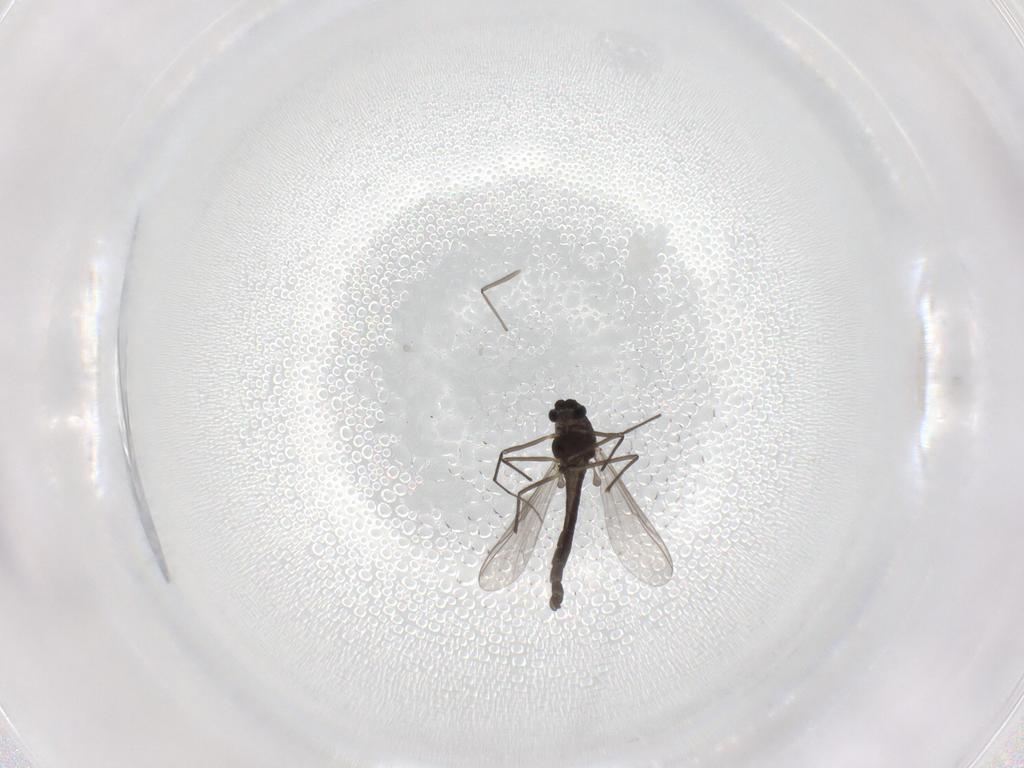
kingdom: Animalia
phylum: Arthropoda
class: Insecta
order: Diptera
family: Chironomidae
